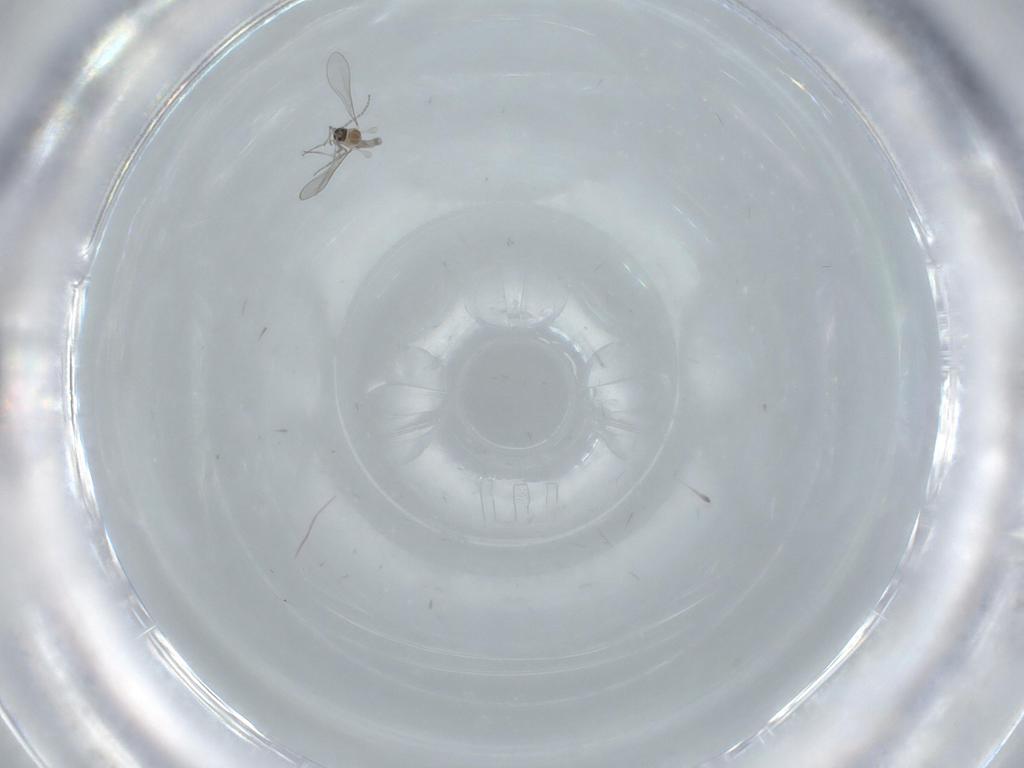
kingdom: Animalia
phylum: Arthropoda
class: Insecta
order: Diptera
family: Cecidomyiidae
